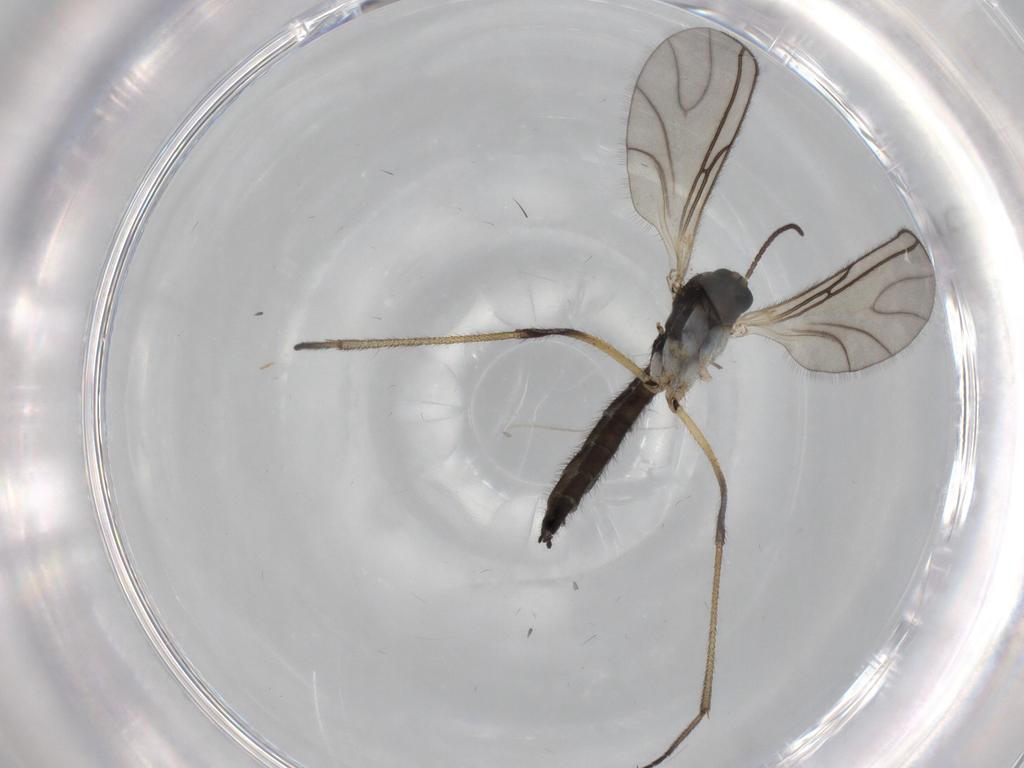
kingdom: Animalia
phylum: Arthropoda
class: Insecta
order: Diptera
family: Sciaridae
